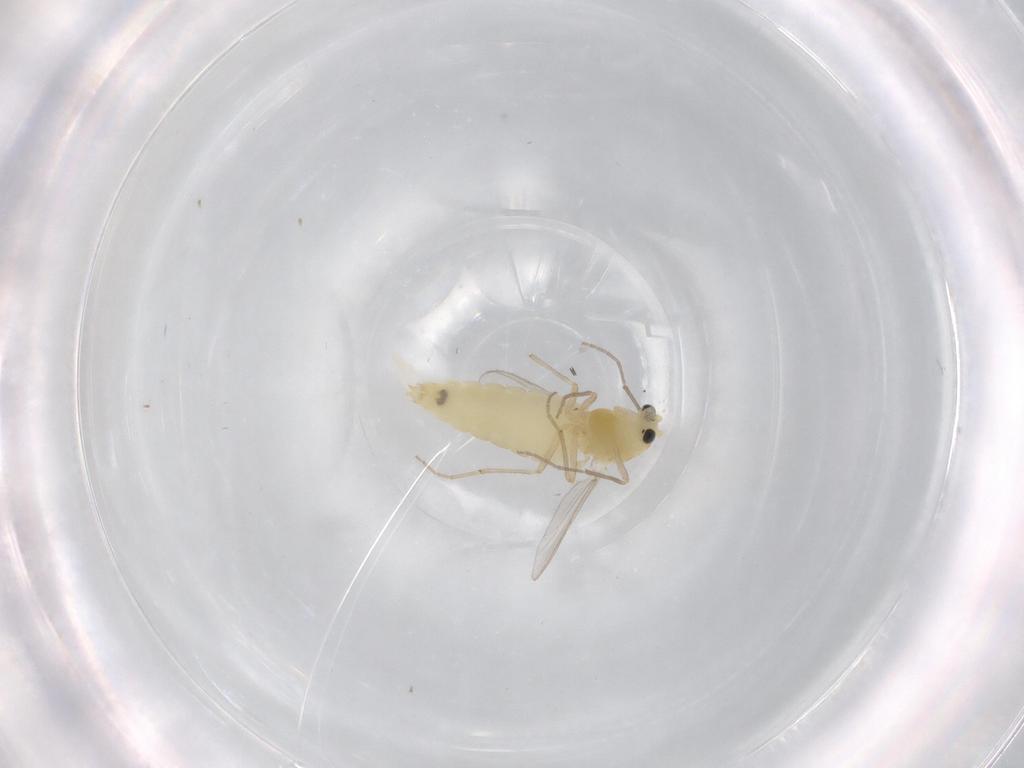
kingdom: Animalia
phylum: Arthropoda
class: Insecta
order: Diptera
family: Chironomidae
